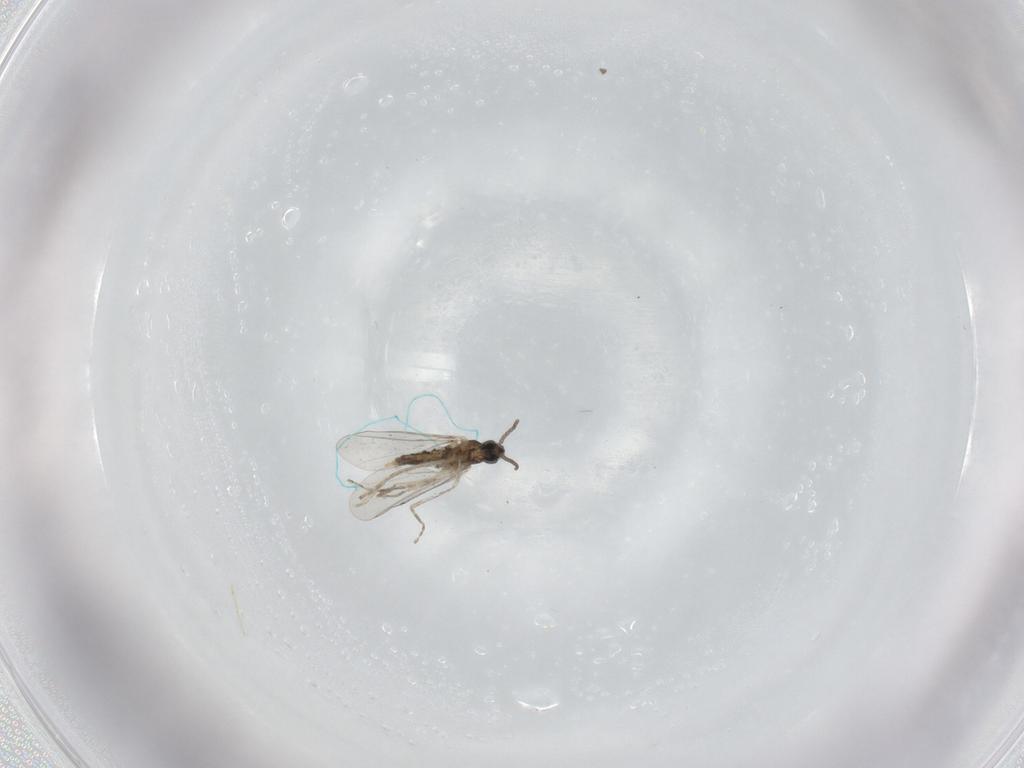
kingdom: Animalia
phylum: Arthropoda
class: Insecta
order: Diptera
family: Cecidomyiidae
